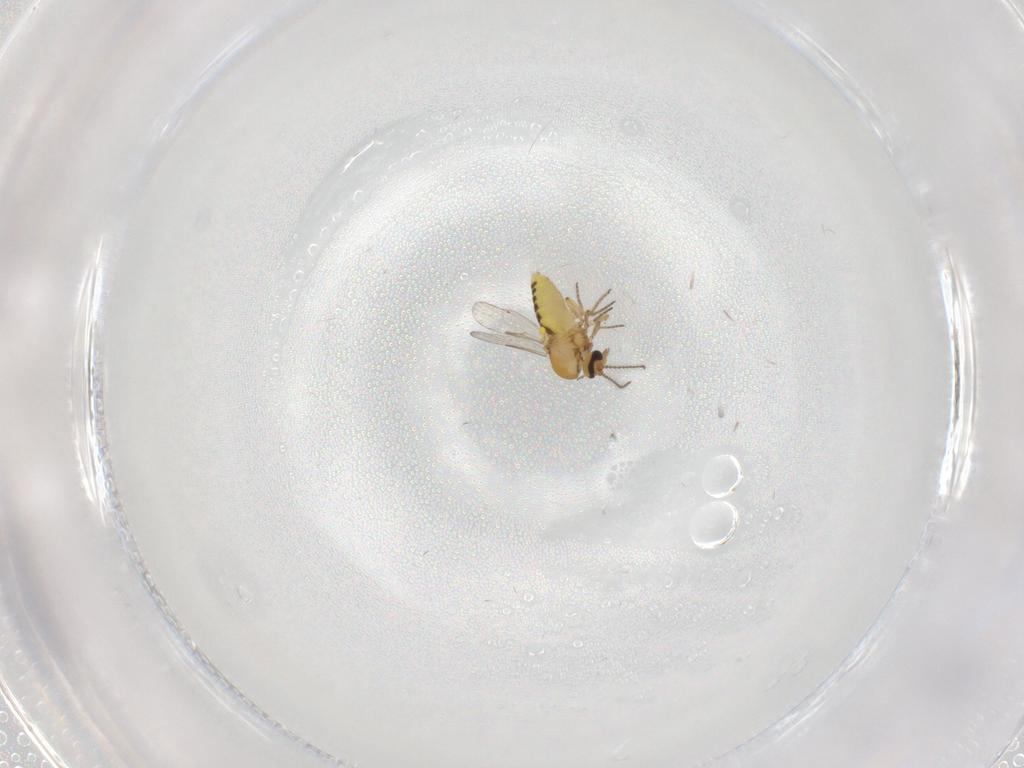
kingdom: Animalia
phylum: Arthropoda
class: Insecta
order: Diptera
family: Ceratopogonidae
